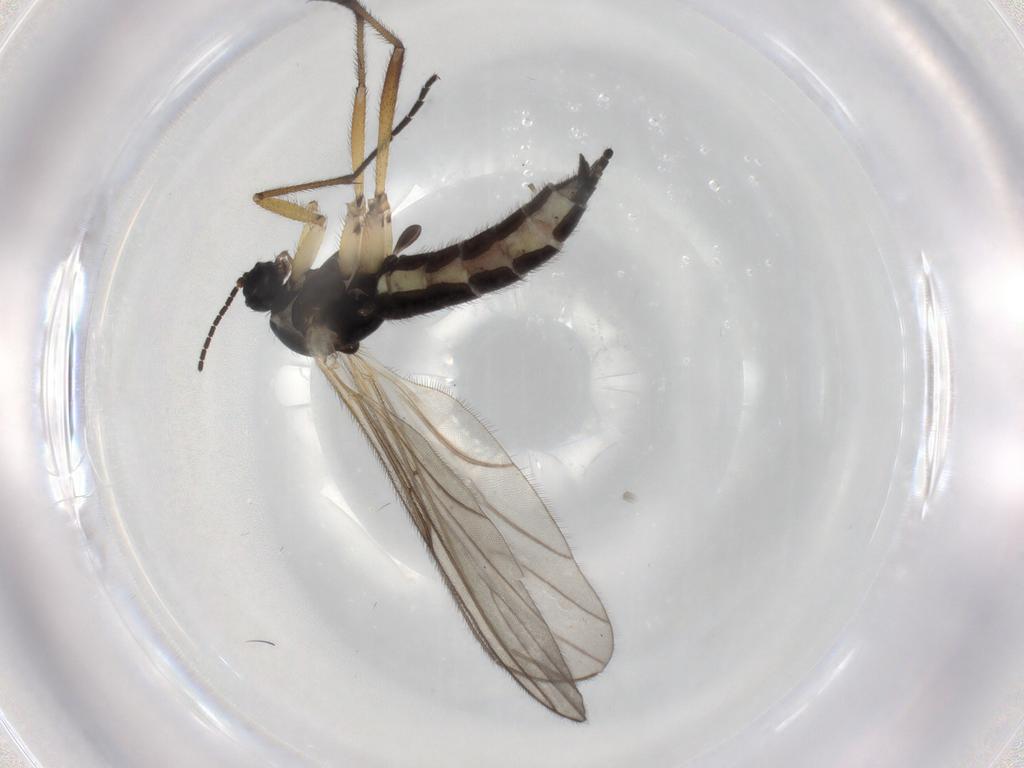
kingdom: Animalia
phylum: Arthropoda
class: Insecta
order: Diptera
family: Sciaridae
